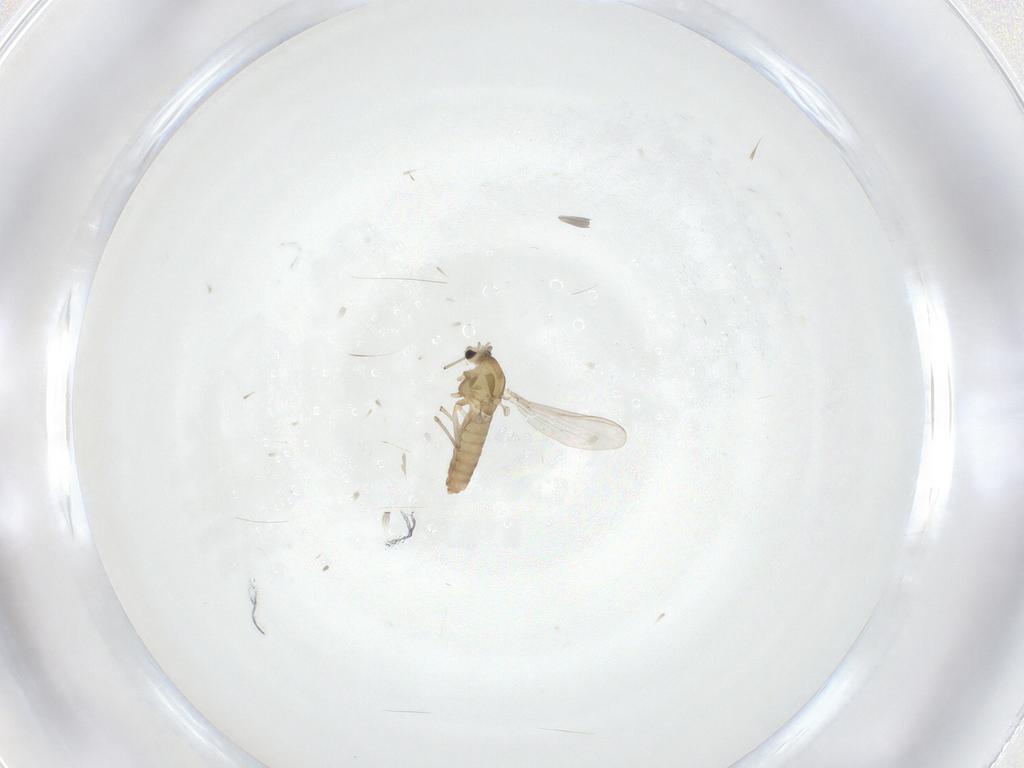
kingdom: Animalia
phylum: Arthropoda
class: Insecta
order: Diptera
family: Chironomidae
